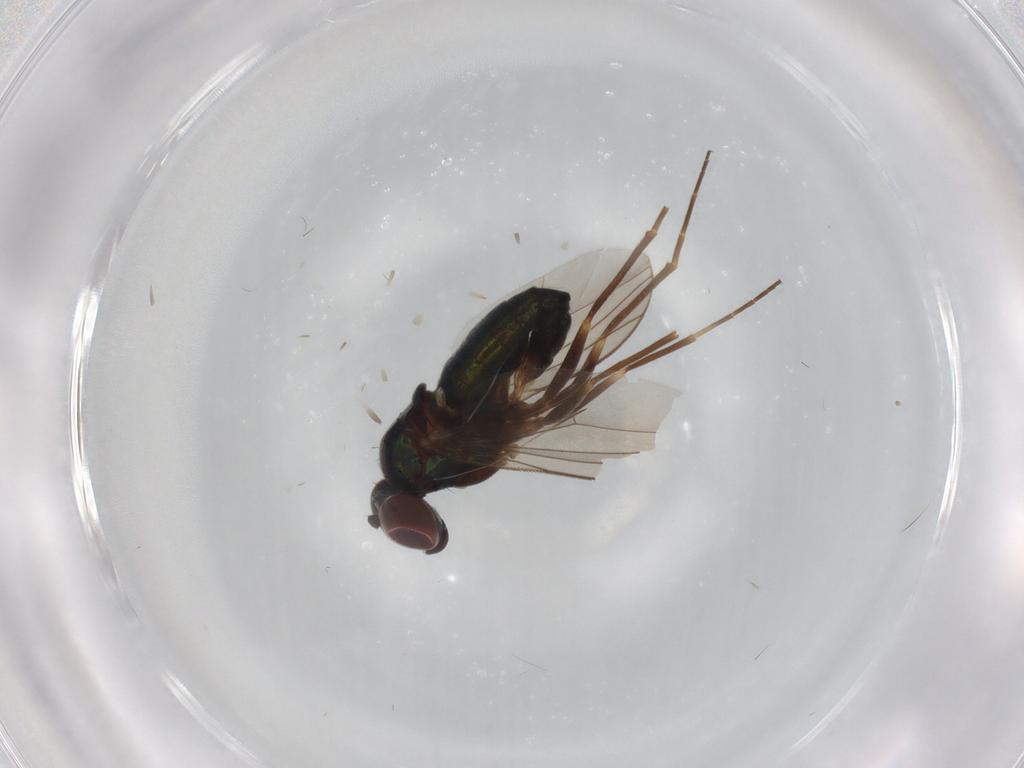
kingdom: Animalia
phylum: Arthropoda
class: Insecta
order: Diptera
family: Dolichopodidae
